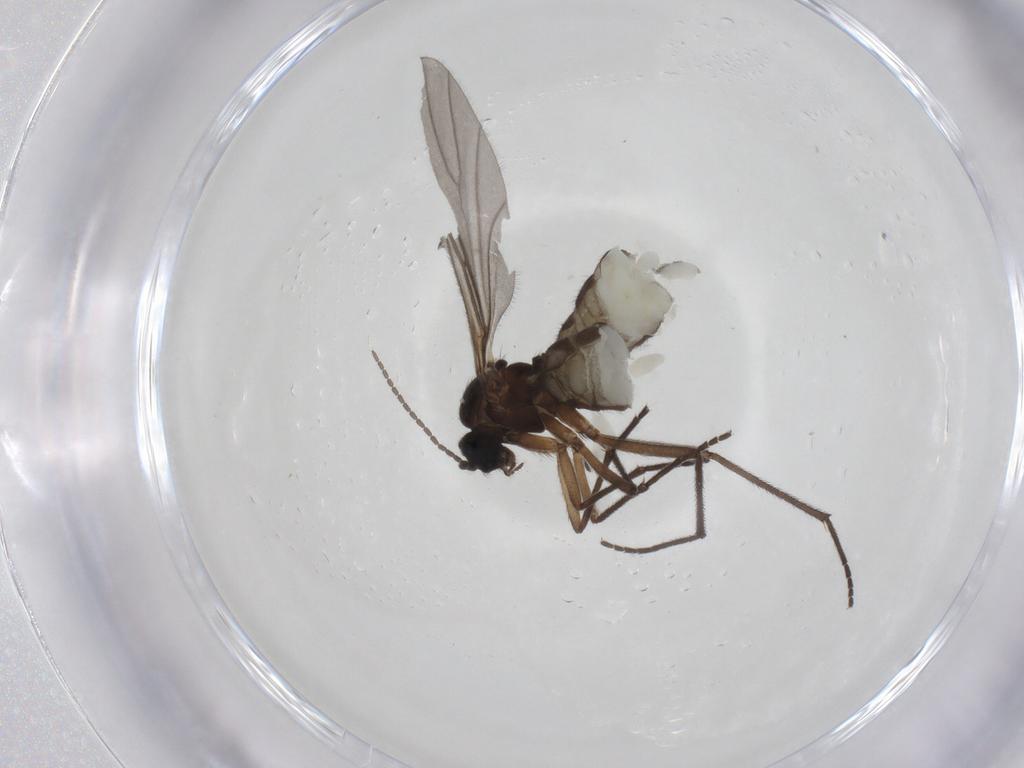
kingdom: Animalia
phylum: Arthropoda
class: Insecta
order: Diptera
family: Sciaridae
